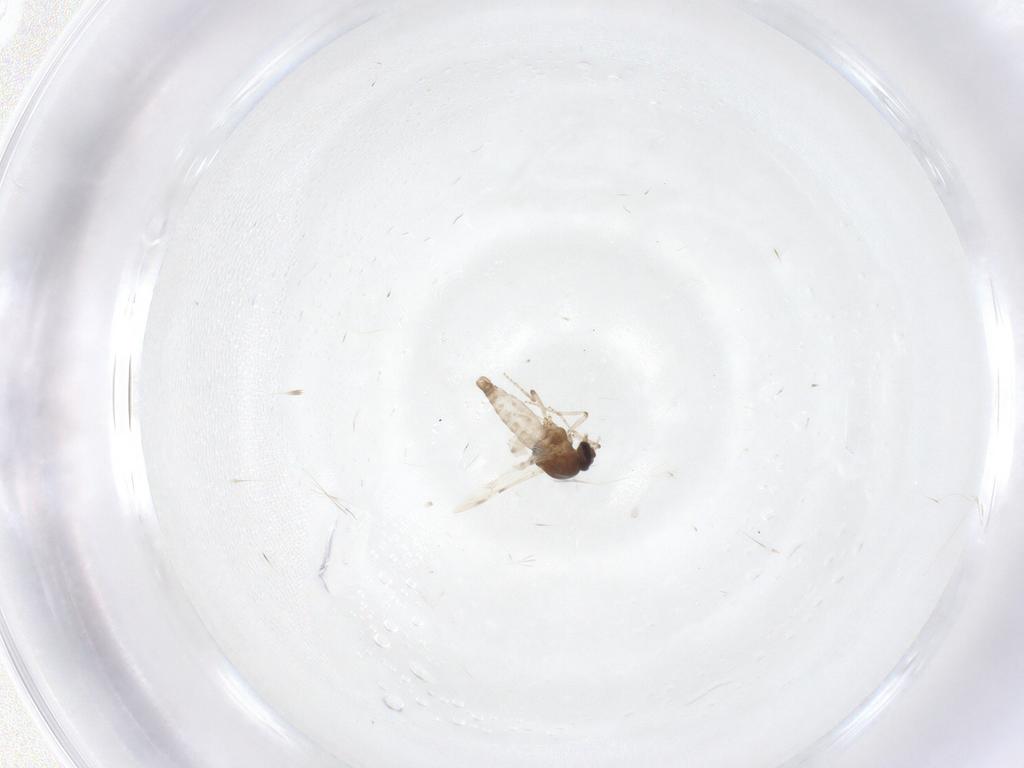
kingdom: Animalia
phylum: Arthropoda
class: Insecta
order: Diptera
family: Ceratopogonidae
